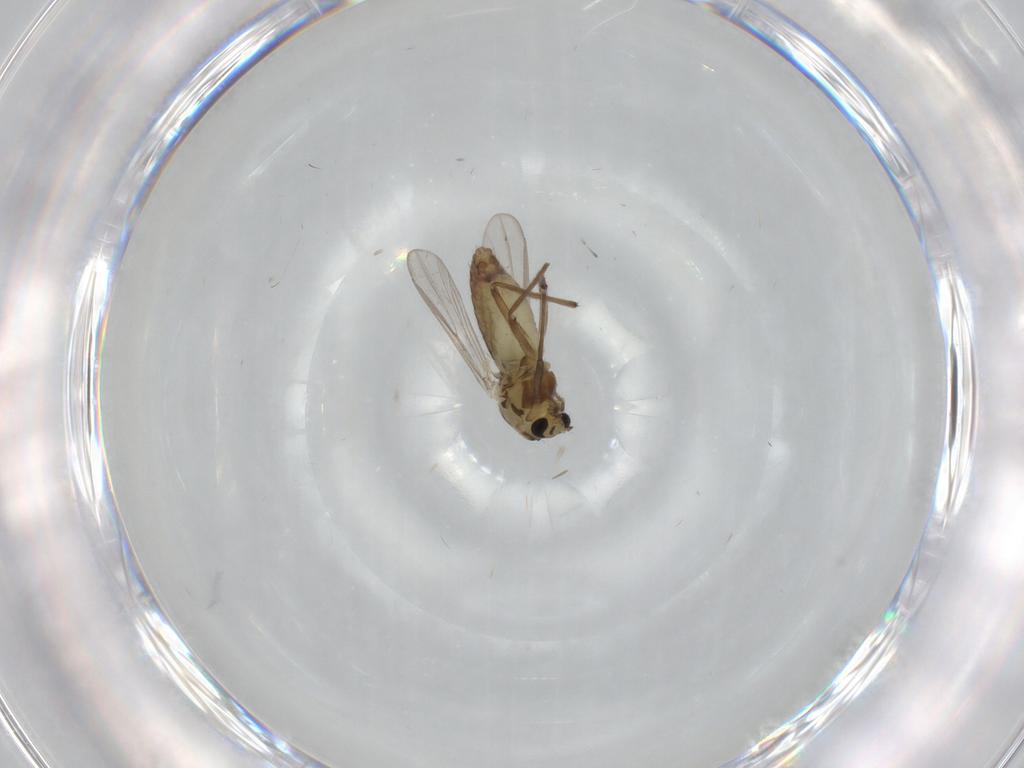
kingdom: Animalia
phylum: Arthropoda
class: Insecta
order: Diptera
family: Chironomidae
